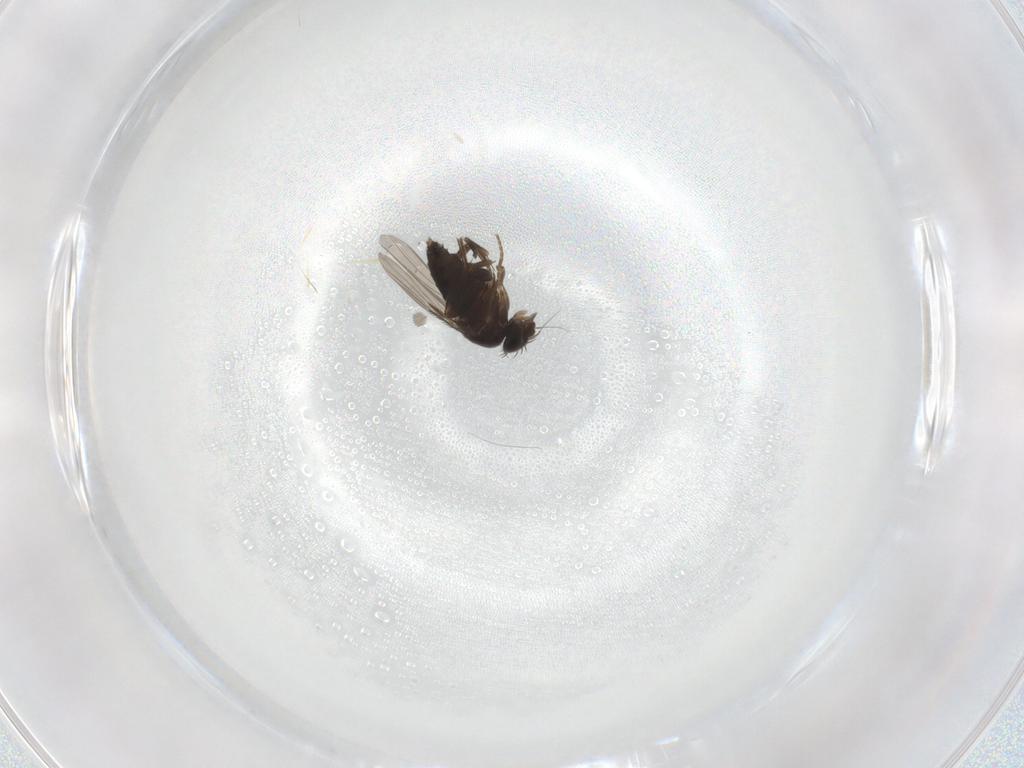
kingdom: Animalia
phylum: Arthropoda
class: Insecta
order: Diptera
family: Phoridae
